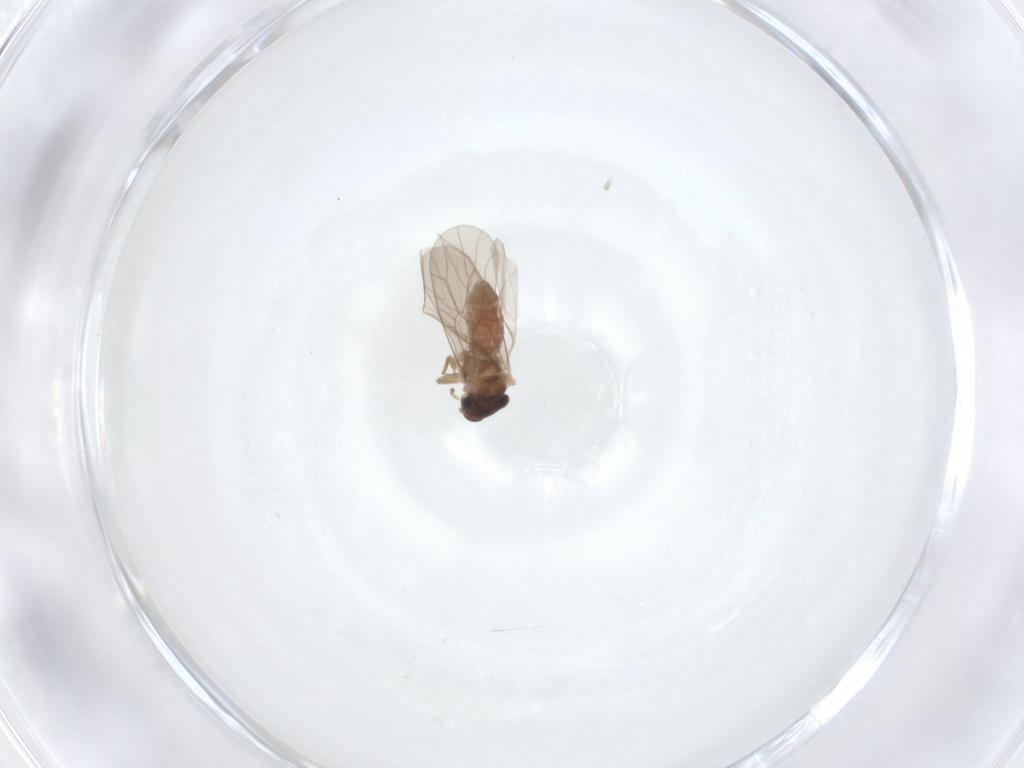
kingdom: Animalia
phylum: Arthropoda
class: Insecta
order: Psocodea
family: Lepidopsocidae
